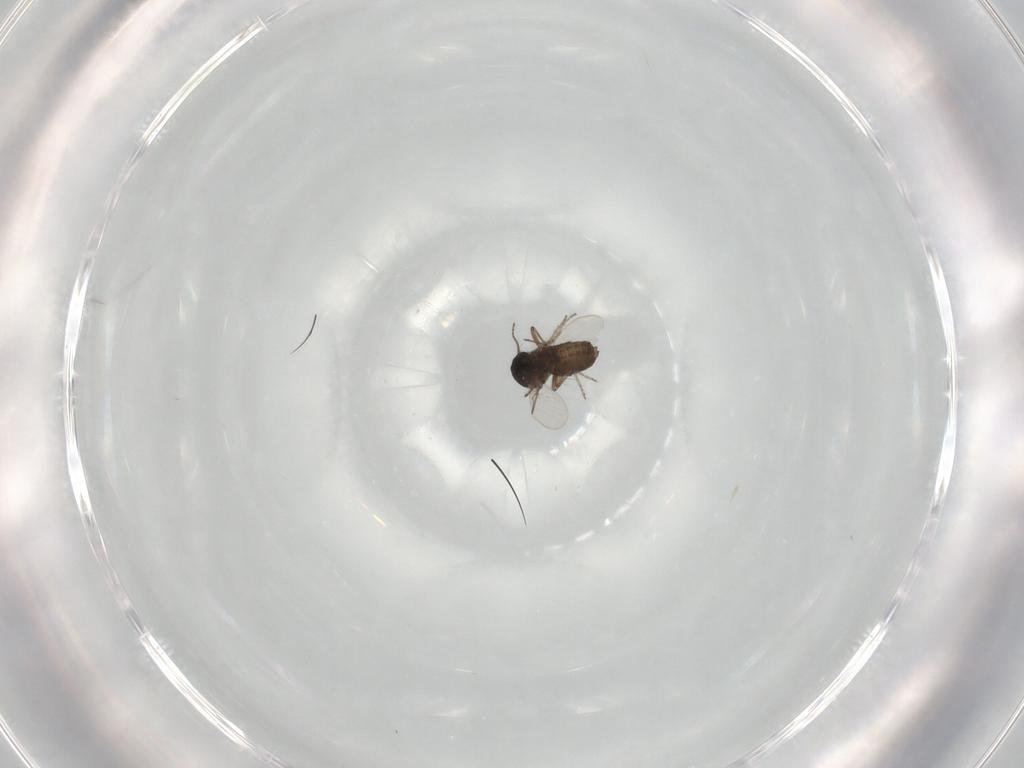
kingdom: Animalia
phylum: Arthropoda
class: Insecta
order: Diptera
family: Ceratopogonidae
